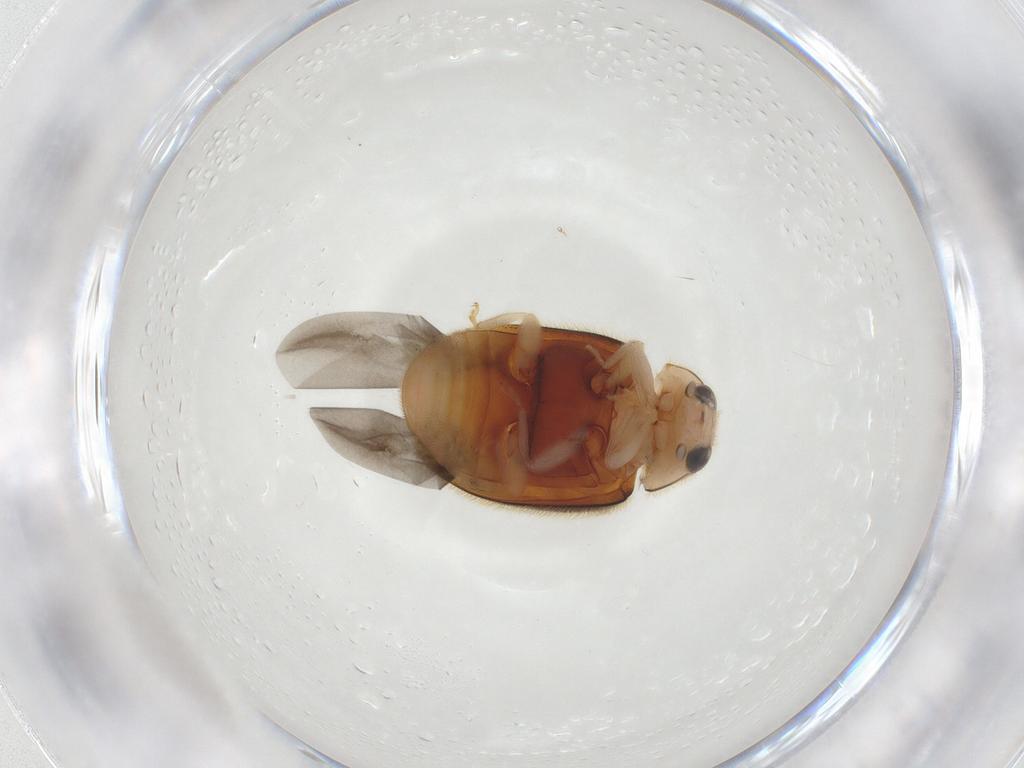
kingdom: Animalia
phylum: Arthropoda
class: Insecta
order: Coleoptera
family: Coccinellidae
